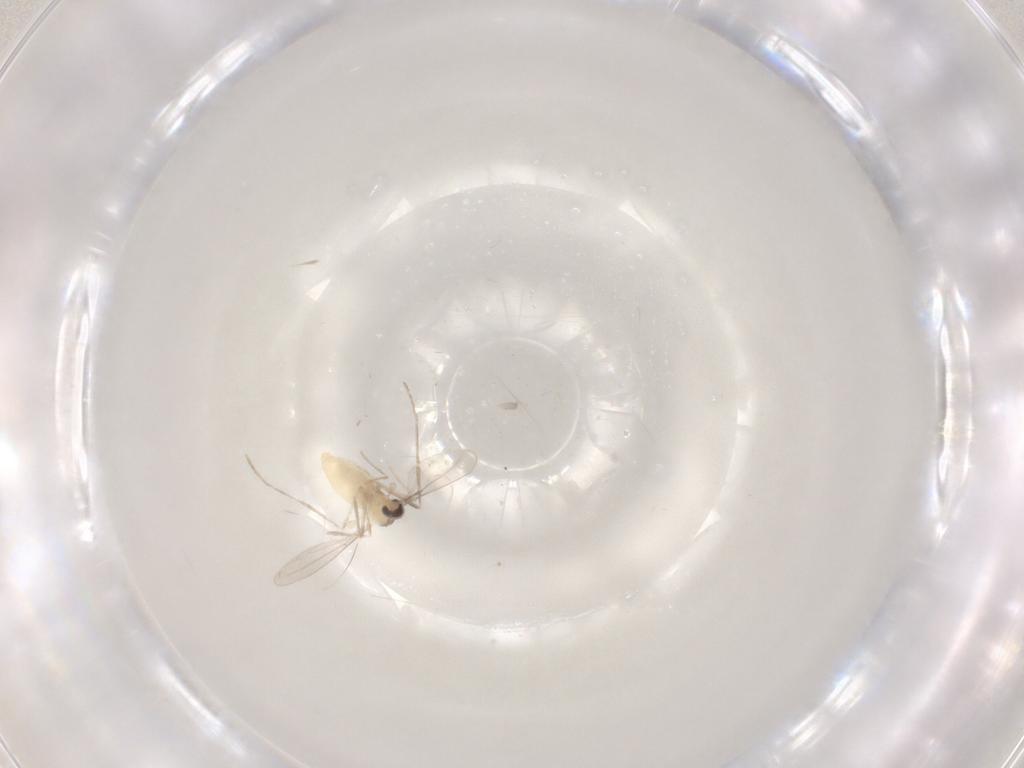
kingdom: Animalia
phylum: Arthropoda
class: Insecta
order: Diptera
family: Cecidomyiidae
